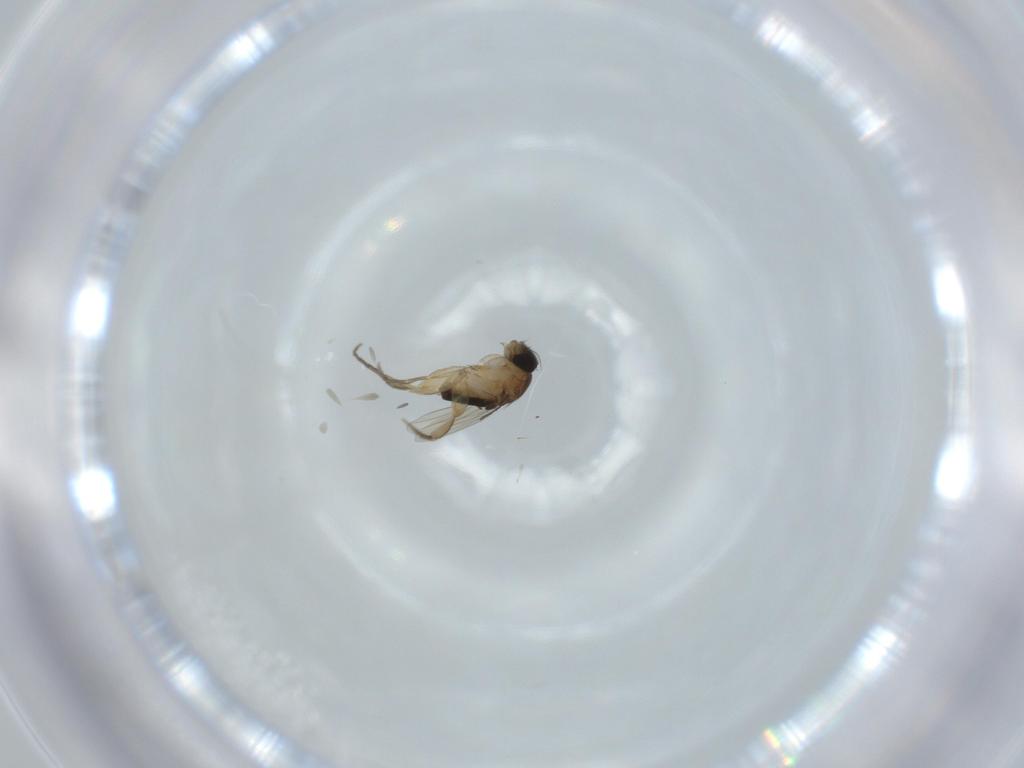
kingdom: Animalia
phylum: Arthropoda
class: Insecta
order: Diptera
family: Phoridae
